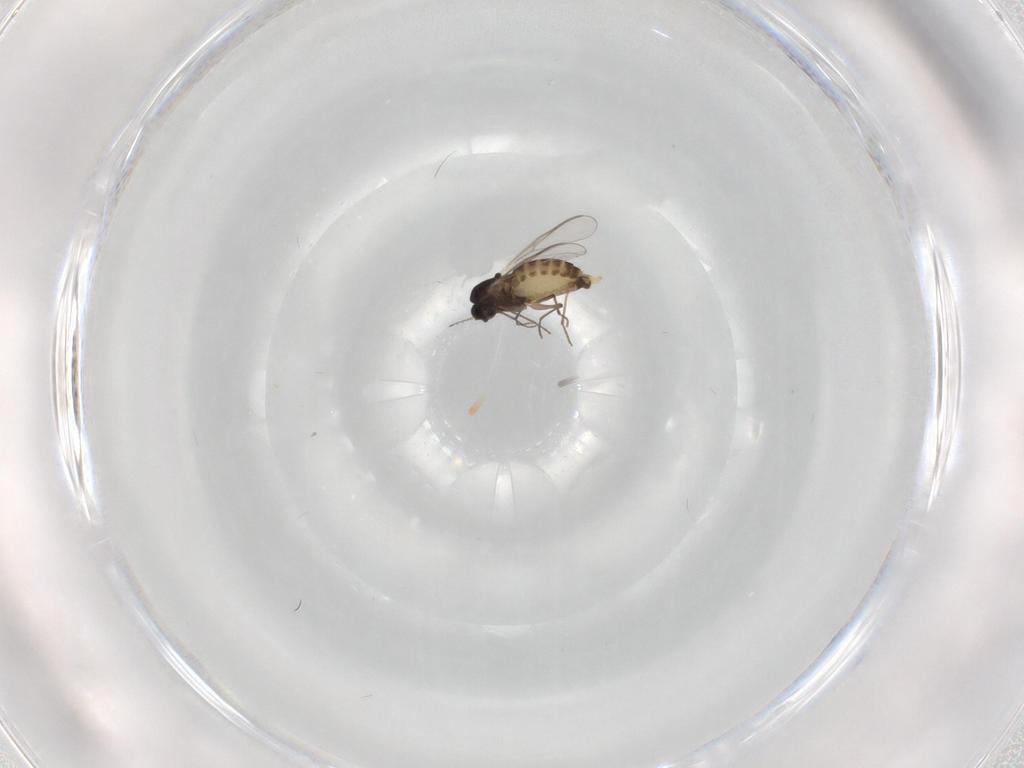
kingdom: Animalia
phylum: Arthropoda
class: Insecta
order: Diptera
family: Chironomidae
